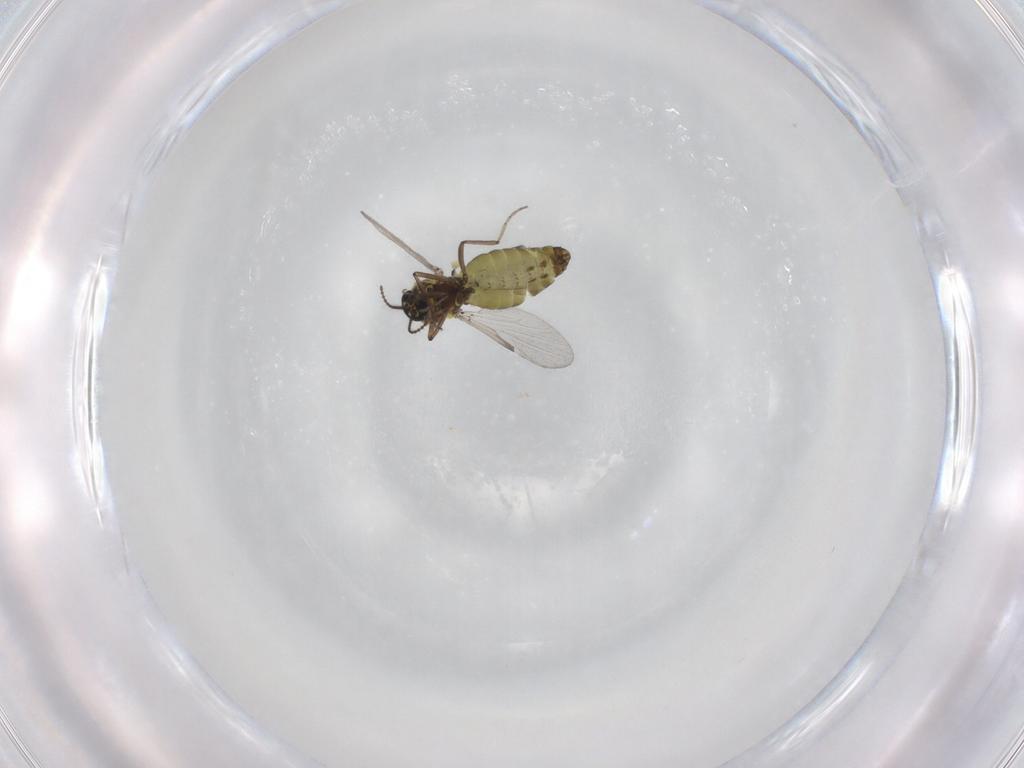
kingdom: Animalia
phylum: Arthropoda
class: Insecta
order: Diptera
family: Ceratopogonidae
